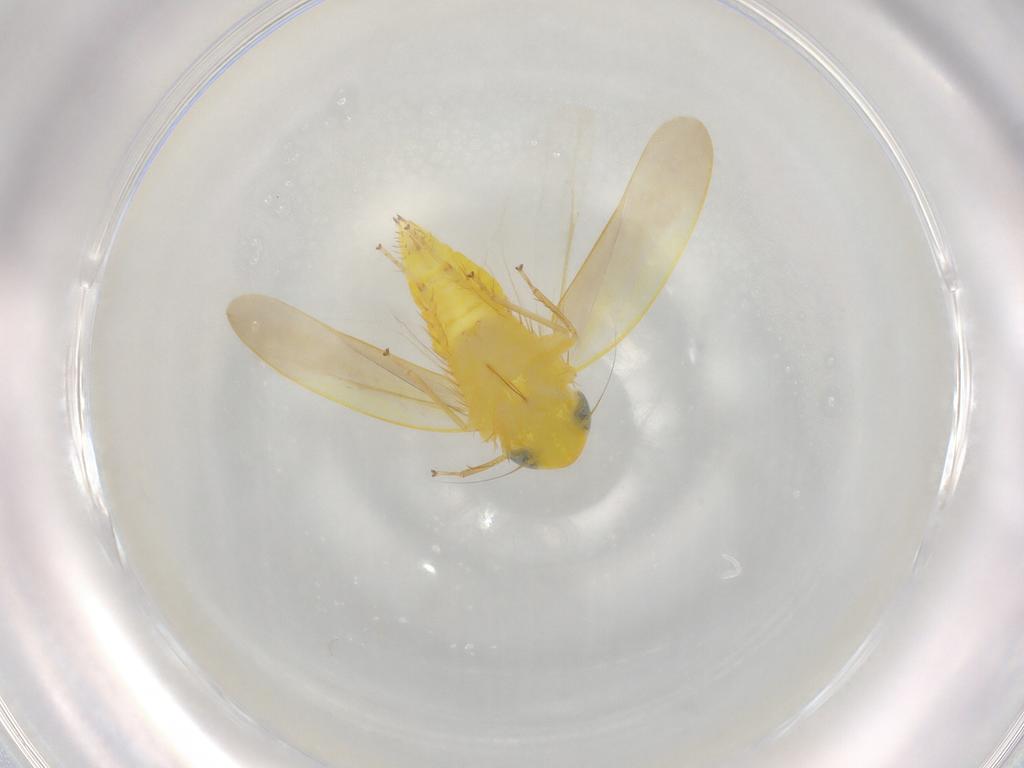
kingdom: Animalia
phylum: Arthropoda
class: Insecta
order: Hemiptera
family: Cicadellidae
